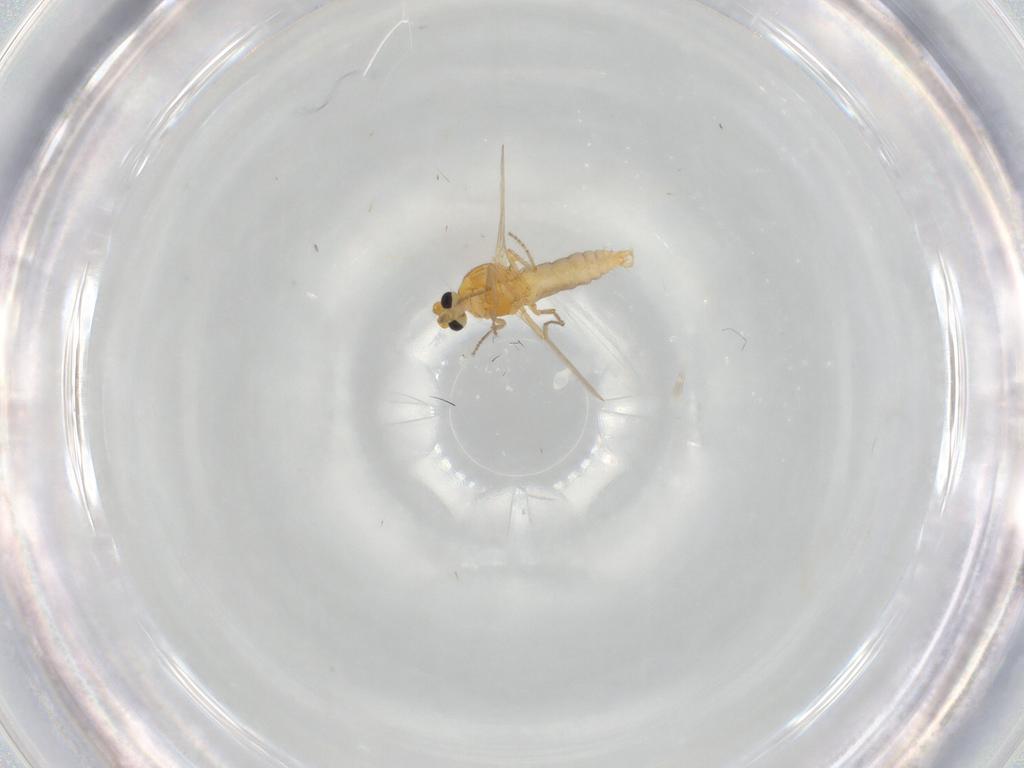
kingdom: Animalia
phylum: Arthropoda
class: Insecta
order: Diptera
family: Ceratopogonidae
